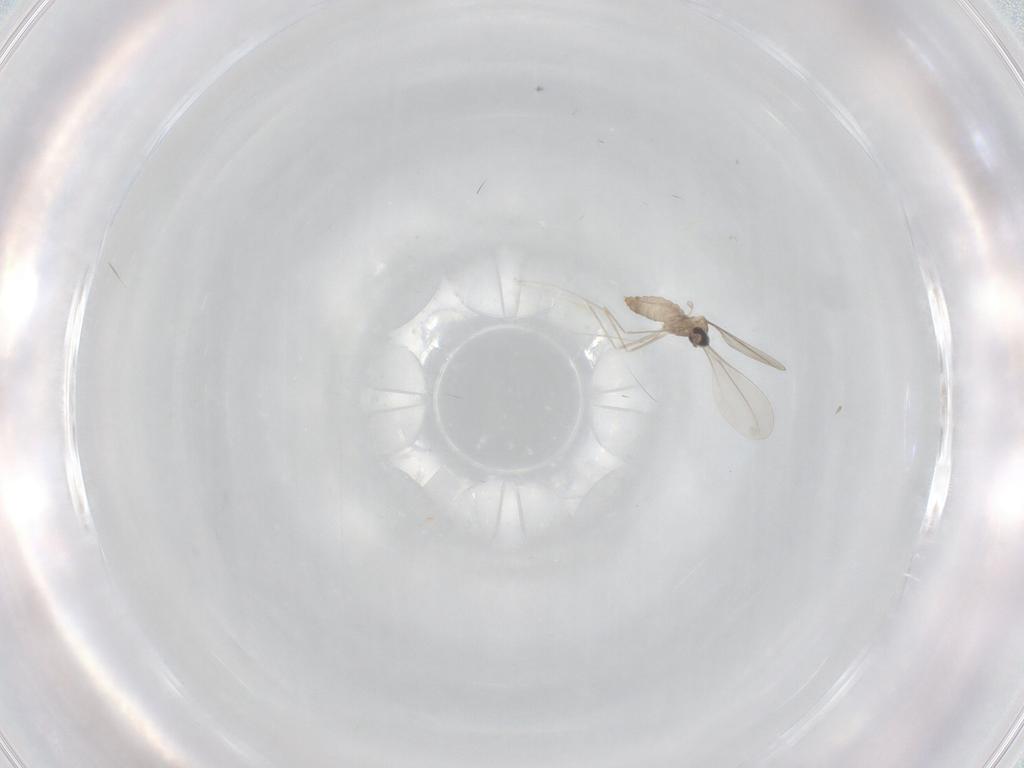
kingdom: Animalia
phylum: Arthropoda
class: Insecta
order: Diptera
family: Cecidomyiidae
